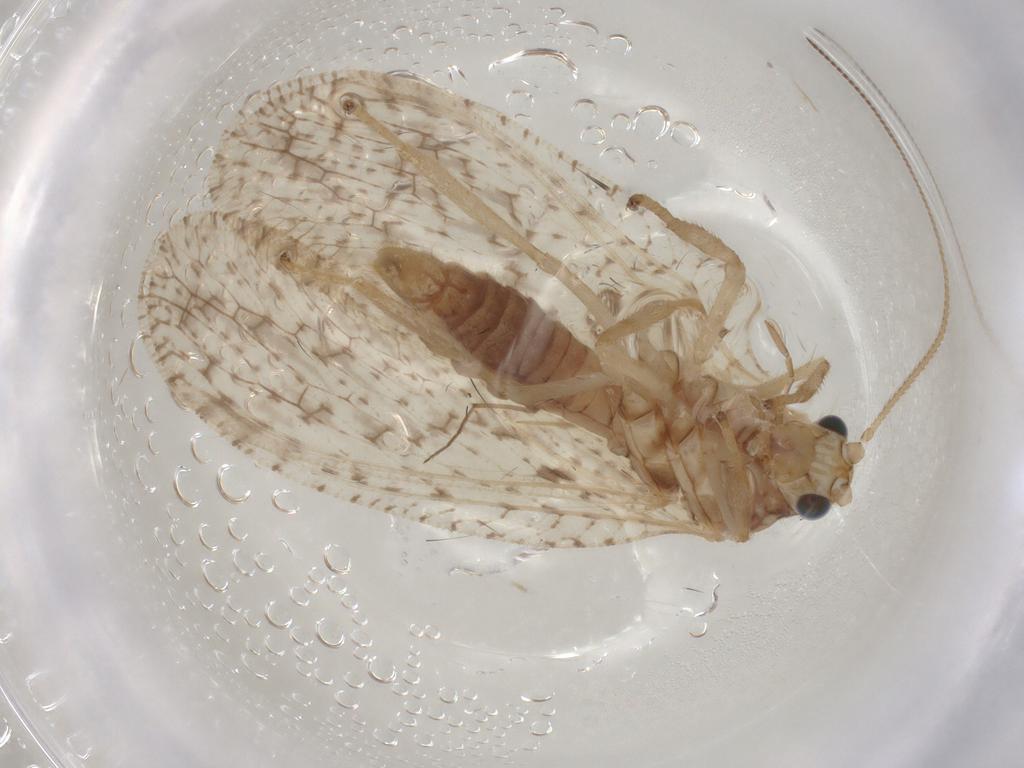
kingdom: Animalia
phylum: Arthropoda
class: Insecta
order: Neuroptera
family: Hemerobiidae
